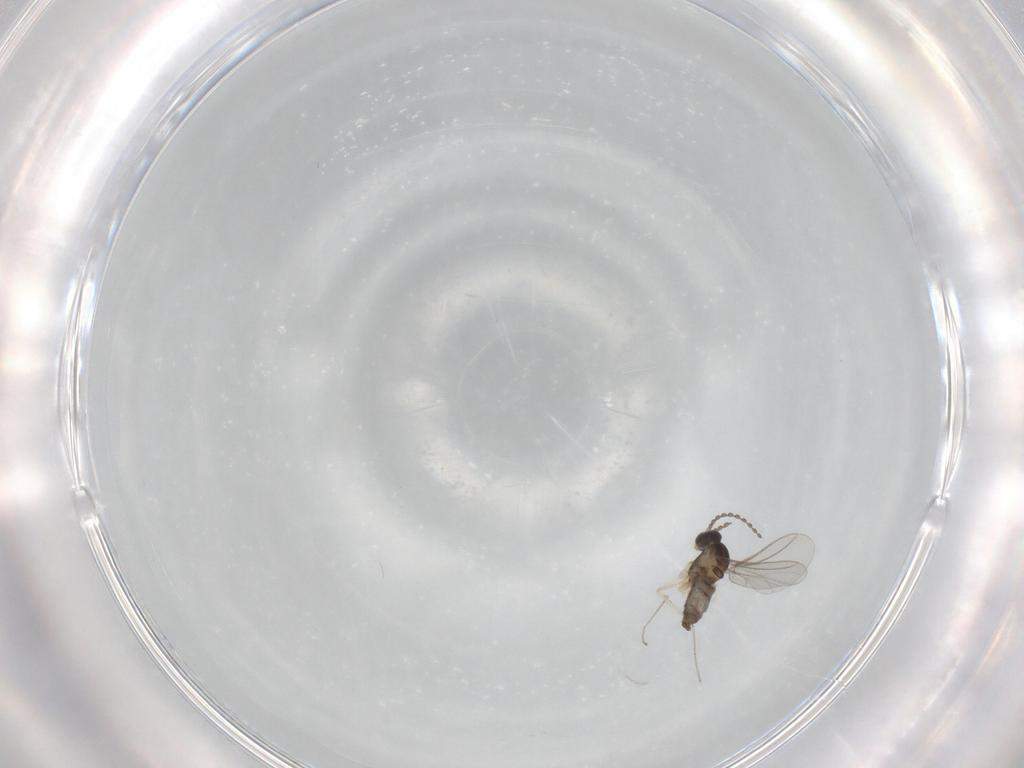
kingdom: Animalia
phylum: Arthropoda
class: Insecta
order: Diptera
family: Cecidomyiidae
